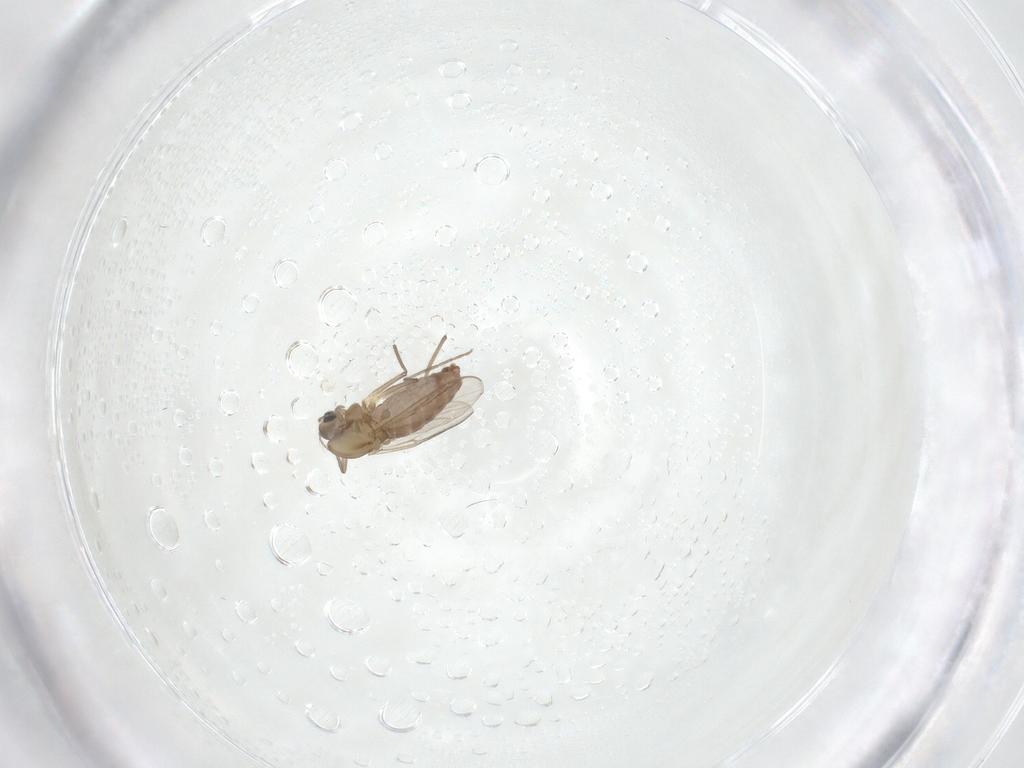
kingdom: Animalia
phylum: Arthropoda
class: Insecta
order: Diptera
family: Chironomidae
